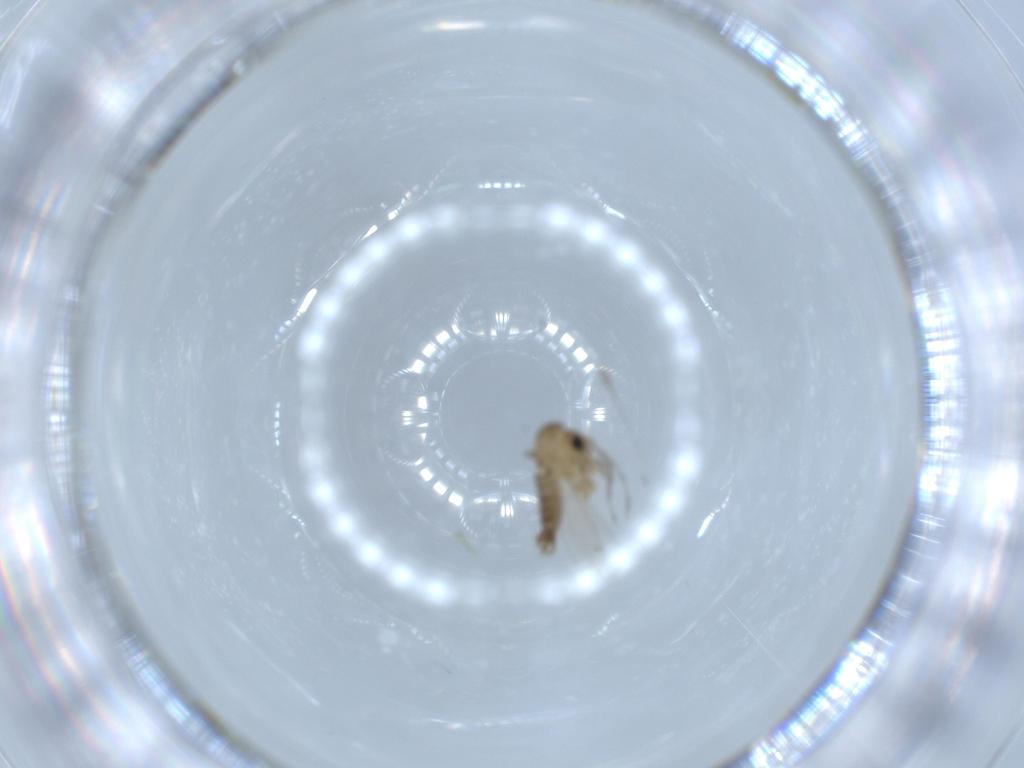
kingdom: Animalia
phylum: Arthropoda
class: Insecta
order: Diptera
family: Psychodidae
